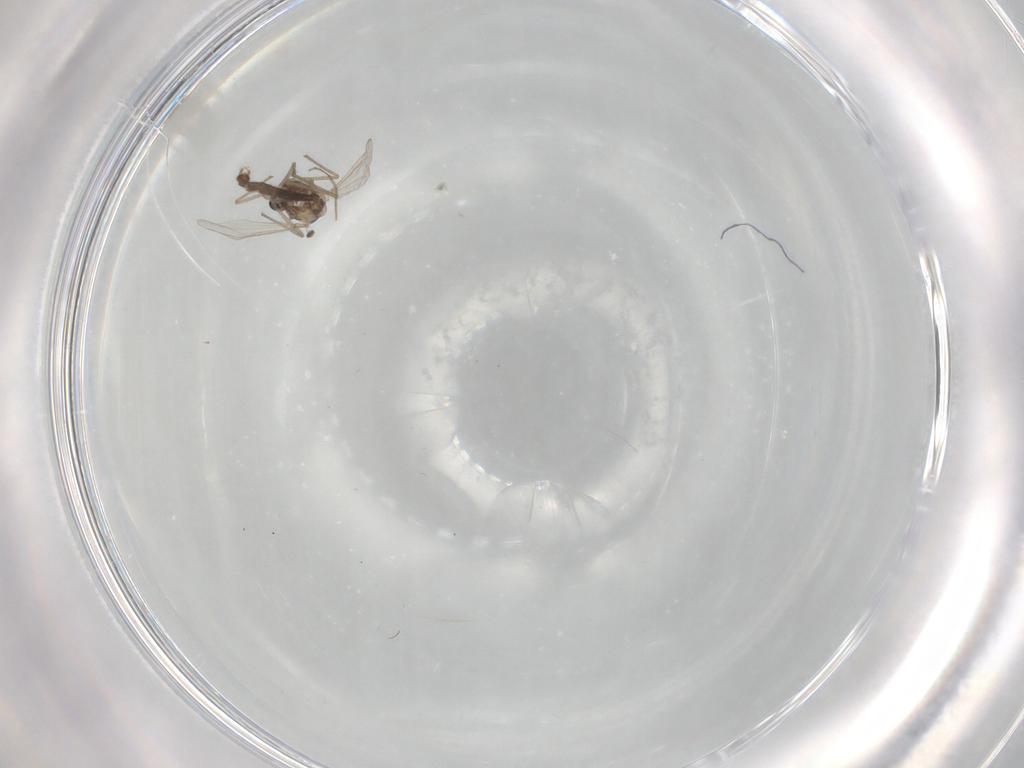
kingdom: Animalia
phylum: Arthropoda
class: Insecta
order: Diptera
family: Chironomidae
